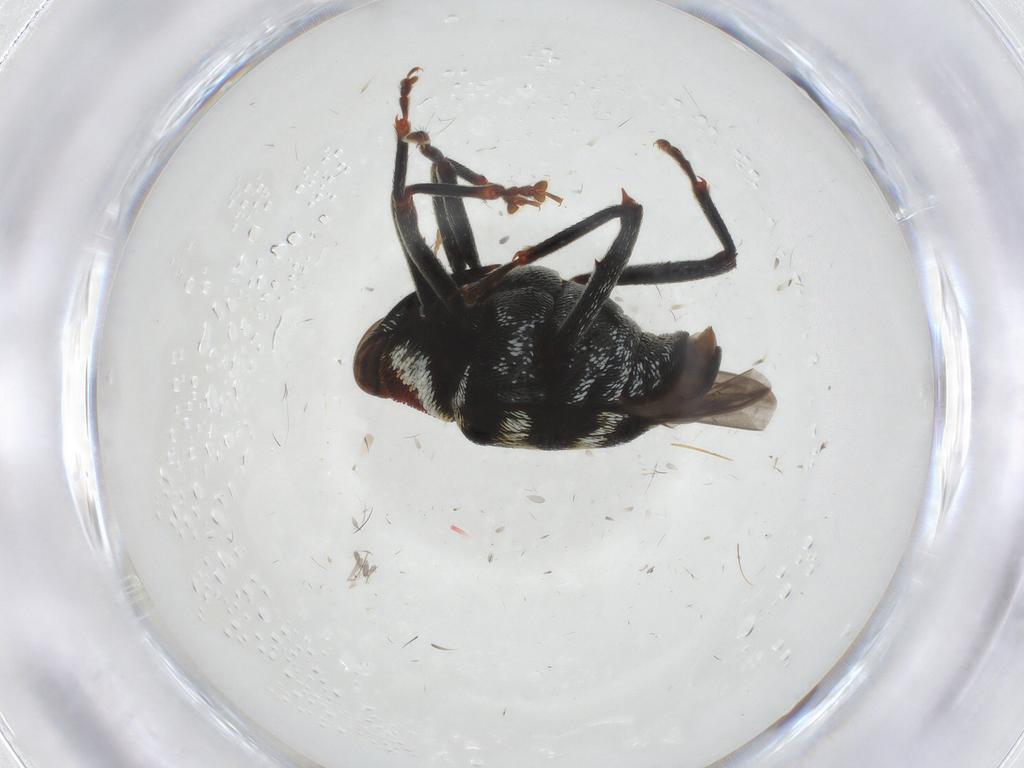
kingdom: Animalia
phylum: Arthropoda
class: Insecta
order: Coleoptera
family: Curculionidae
